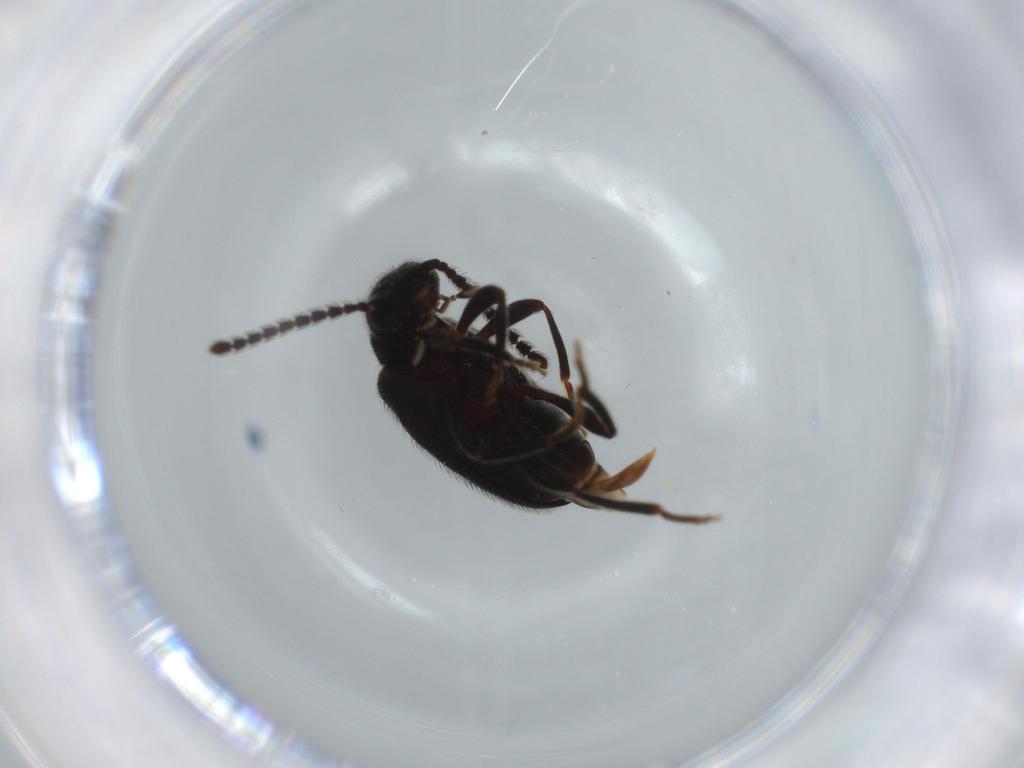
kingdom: Animalia
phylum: Arthropoda
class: Insecta
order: Coleoptera
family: Aderidae
